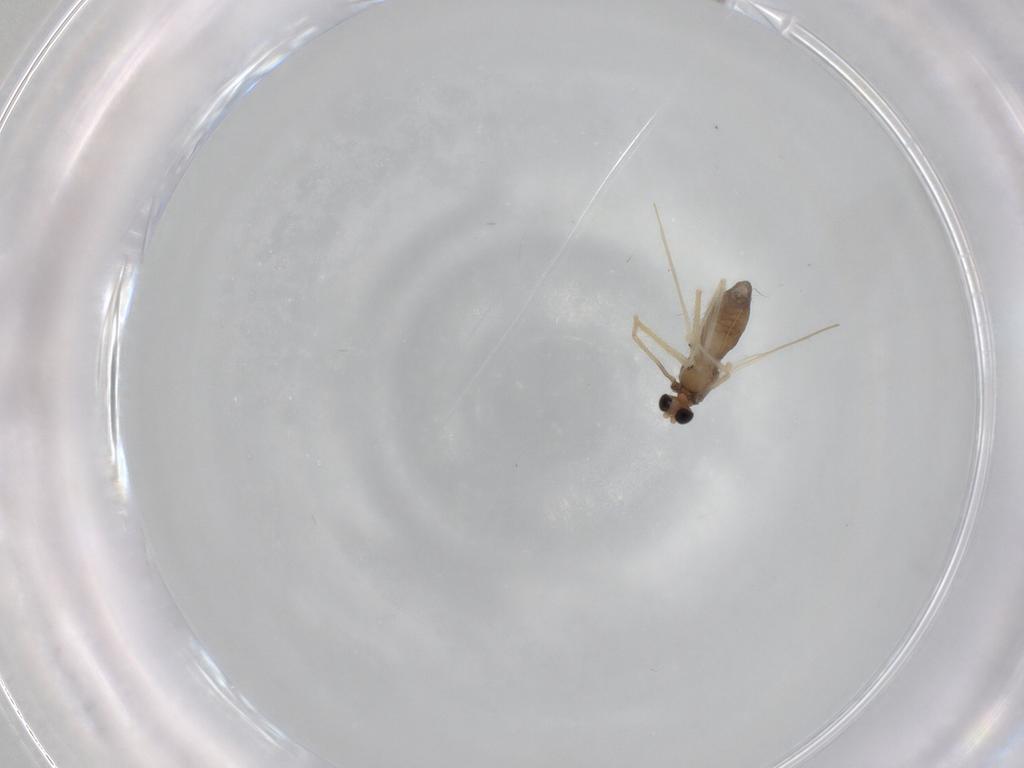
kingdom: Animalia
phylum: Arthropoda
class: Insecta
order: Diptera
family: Chironomidae
